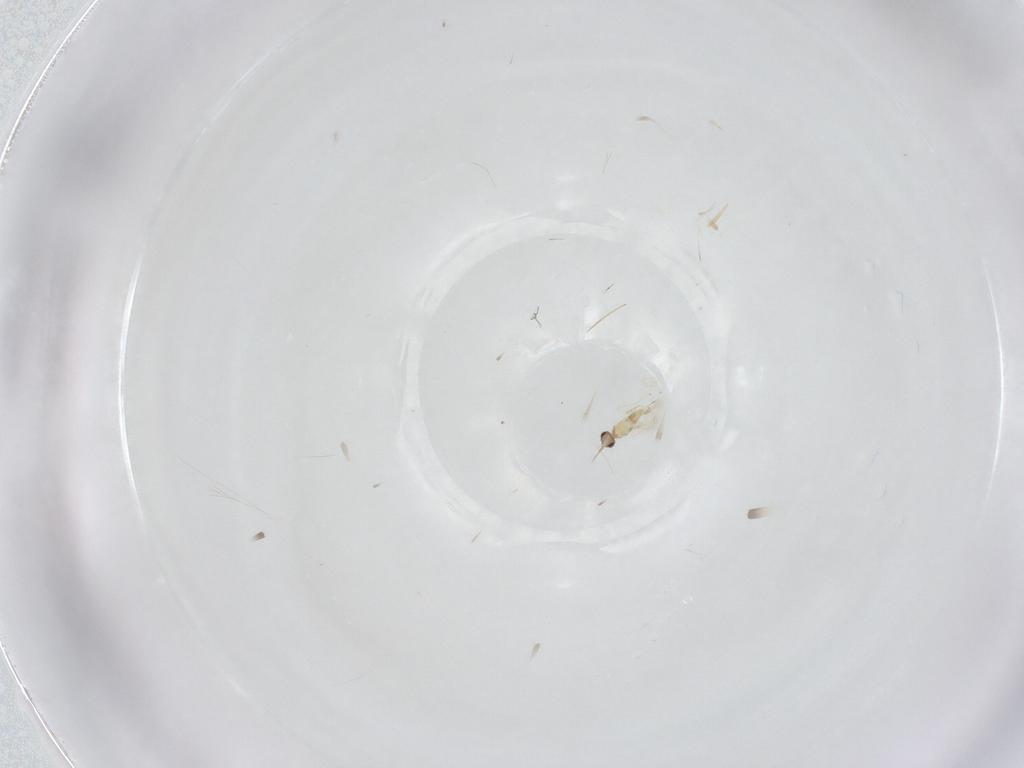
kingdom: Animalia
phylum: Arthropoda
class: Insecta
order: Hymenoptera
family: Mymaridae
